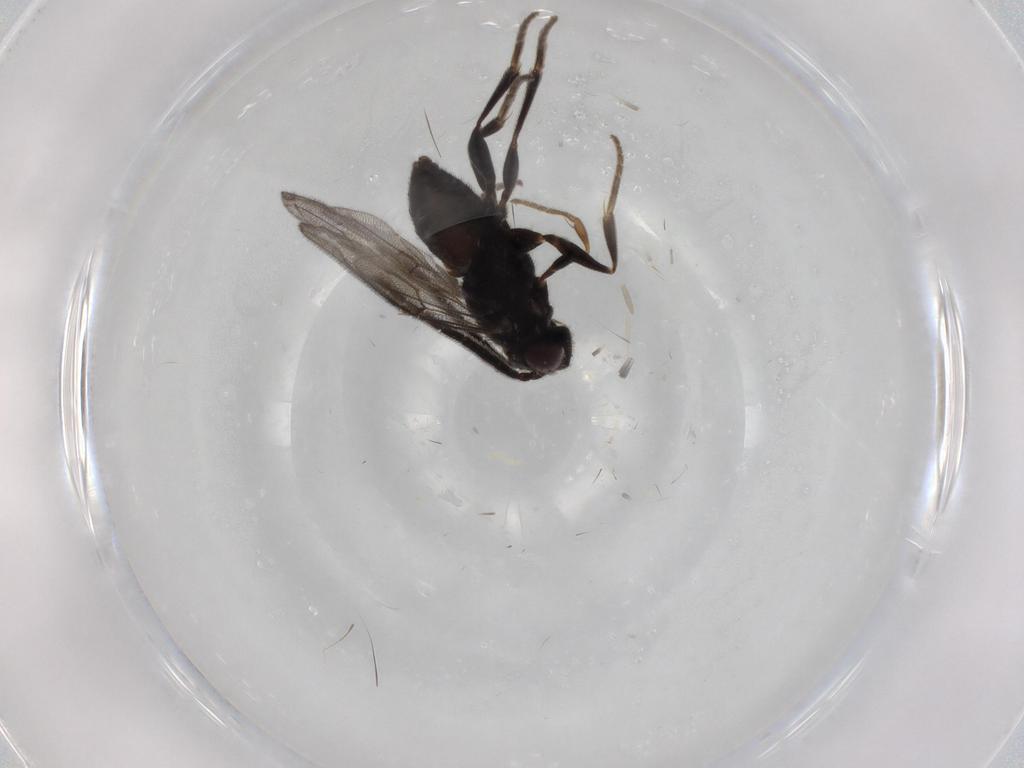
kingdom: Animalia
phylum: Arthropoda
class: Insecta
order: Hymenoptera
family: Dryinidae
